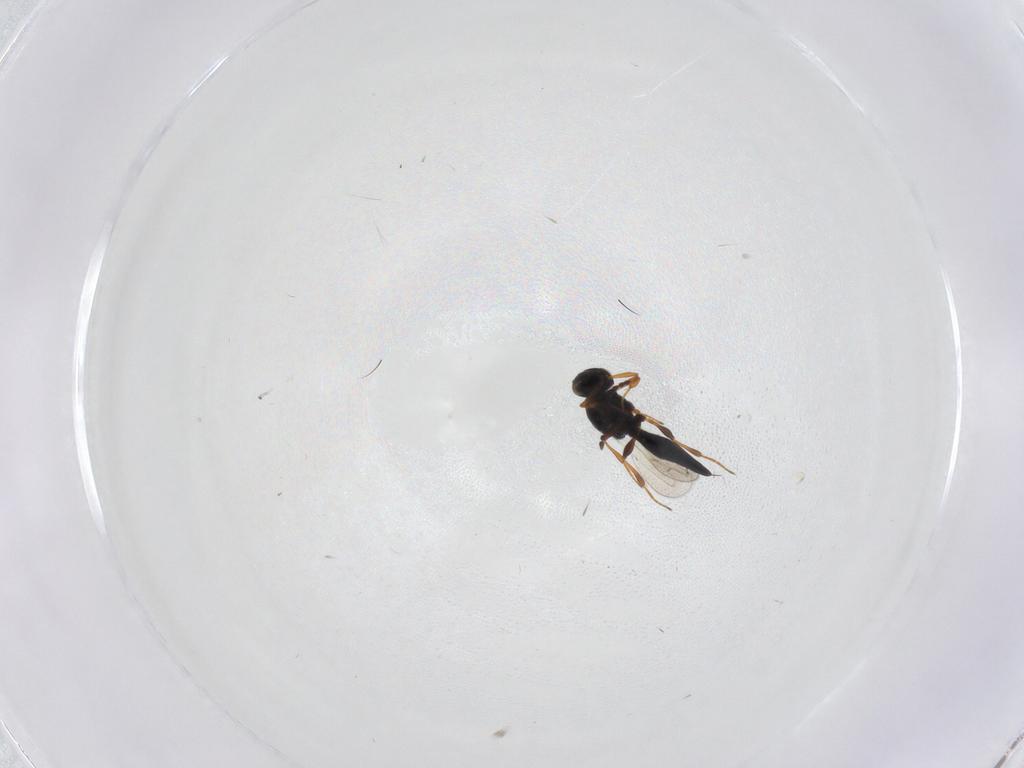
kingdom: Animalia
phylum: Arthropoda
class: Insecta
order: Hymenoptera
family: Platygastridae
